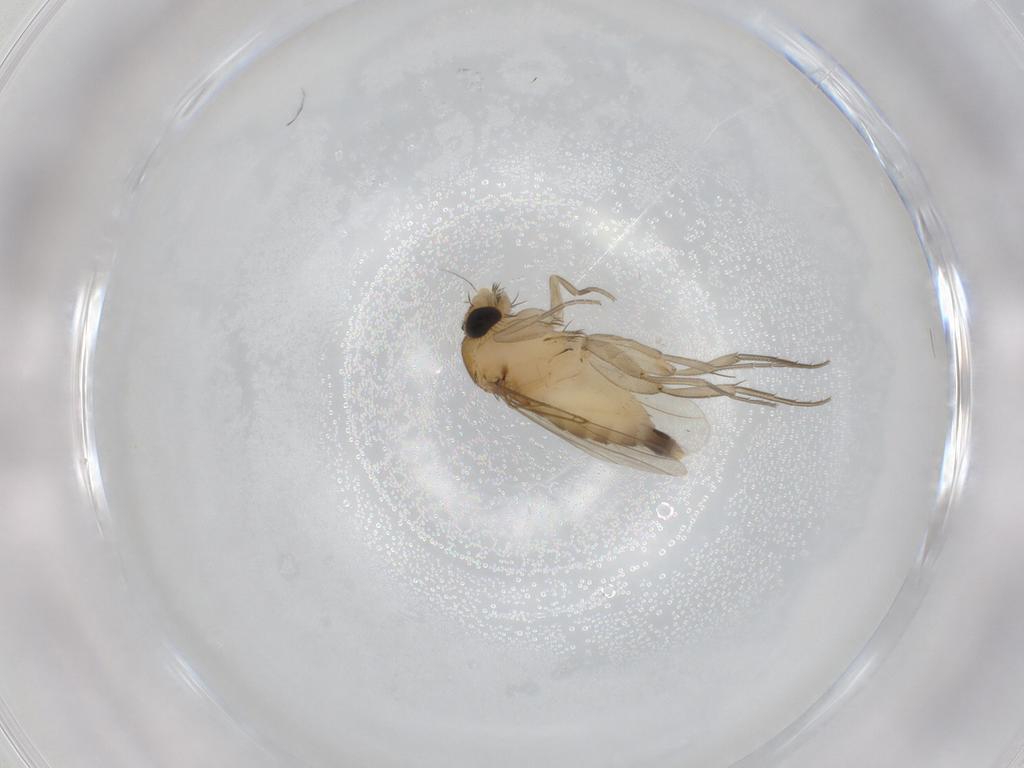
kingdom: Animalia
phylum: Arthropoda
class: Insecta
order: Diptera
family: Phoridae
